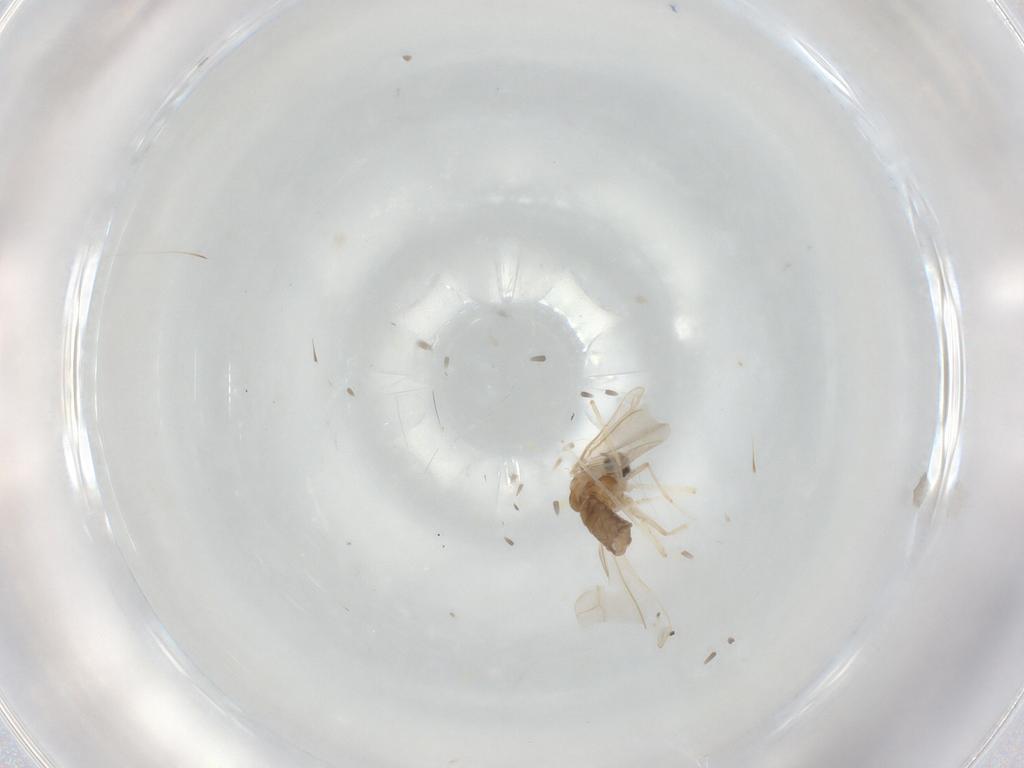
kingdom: Animalia
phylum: Arthropoda
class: Insecta
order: Diptera
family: Cecidomyiidae
